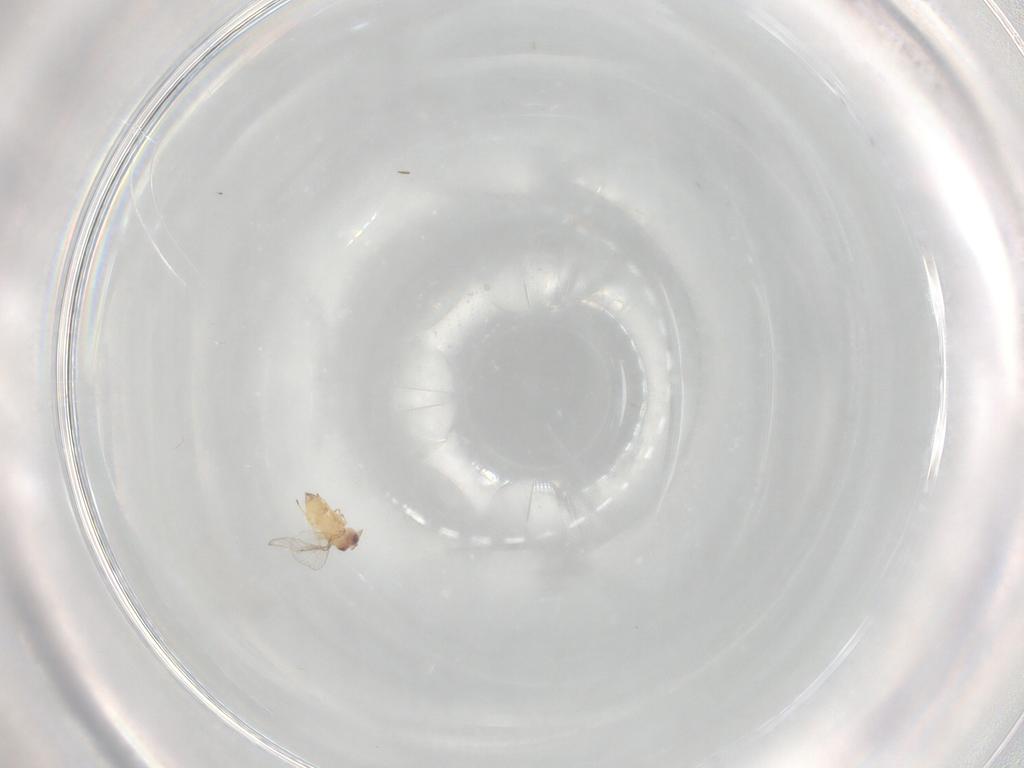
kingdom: Animalia
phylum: Arthropoda
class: Insecta
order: Hymenoptera
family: Trichogrammatidae
